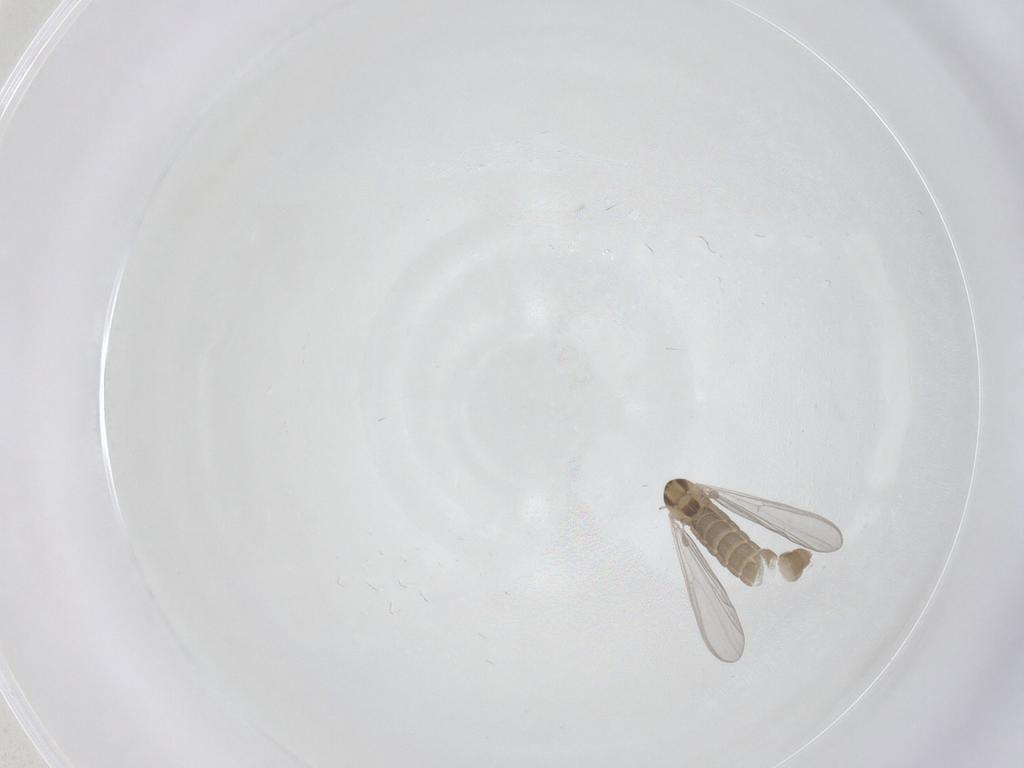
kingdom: Animalia
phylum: Arthropoda
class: Insecta
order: Diptera
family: Chironomidae
